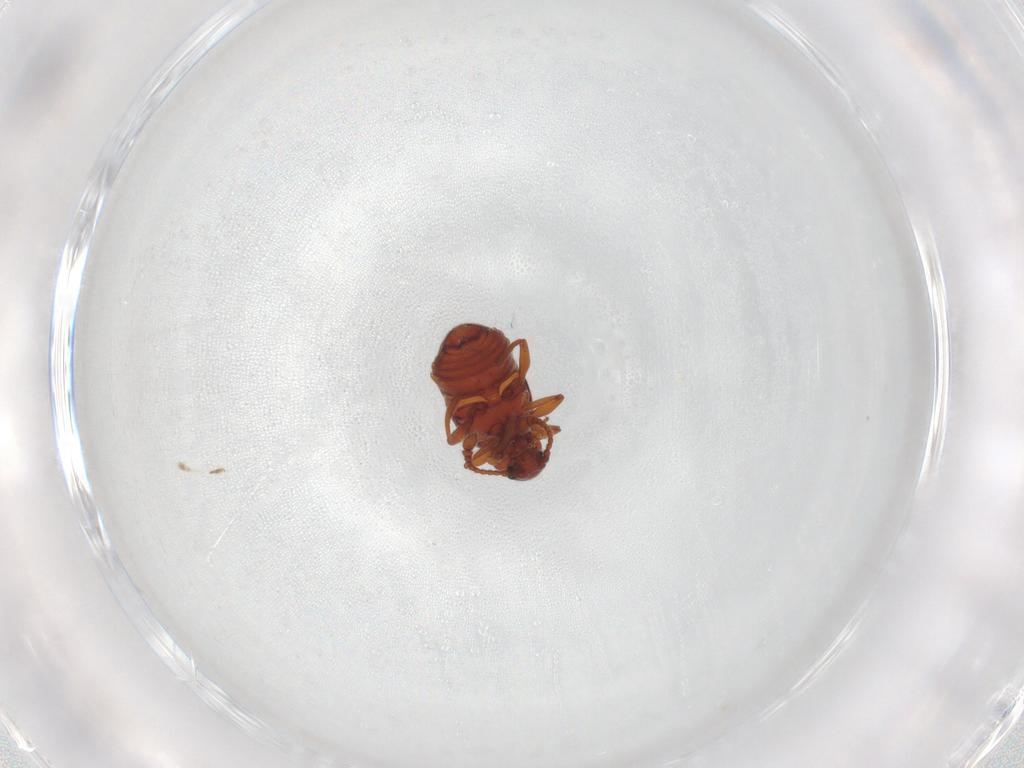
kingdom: Animalia
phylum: Arthropoda
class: Insecta
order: Coleoptera
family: Staphylinidae
